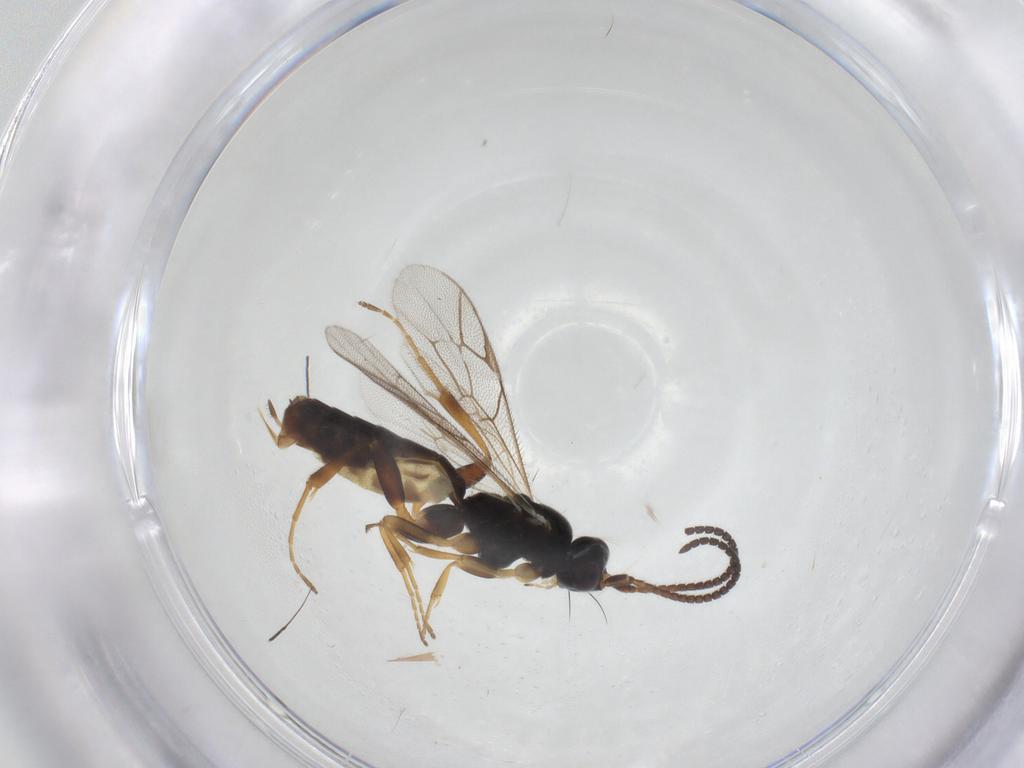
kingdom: Animalia
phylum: Arthropoda
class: Insecta
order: Hymenoptera
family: Ichneumonidae
